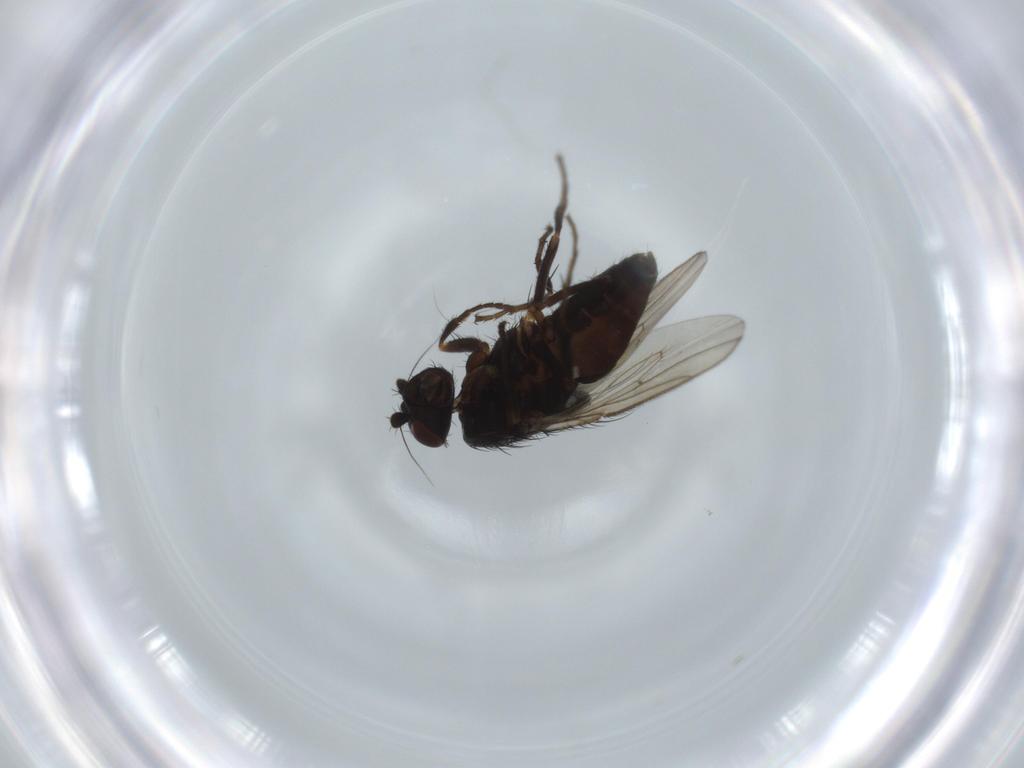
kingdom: Animalia
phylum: Arthropoda
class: Insecta
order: Diptera
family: Sphaeroceridae
